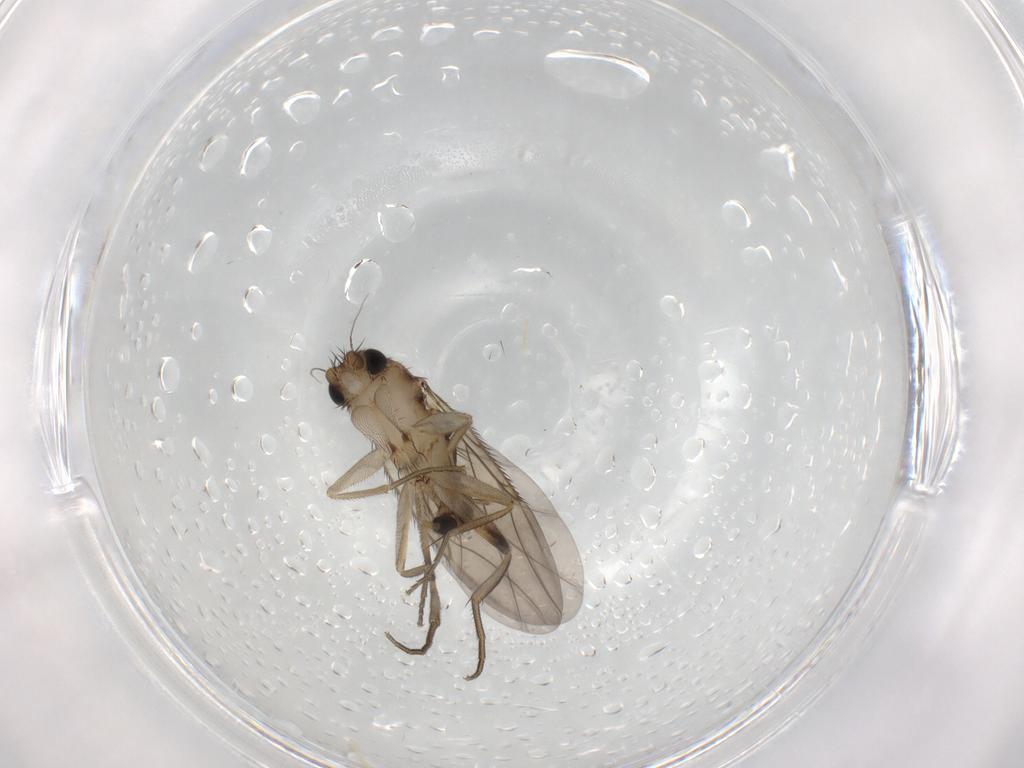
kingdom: Animalia
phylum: Arthropoda
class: Insecta
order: Diptera
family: Phoridae
